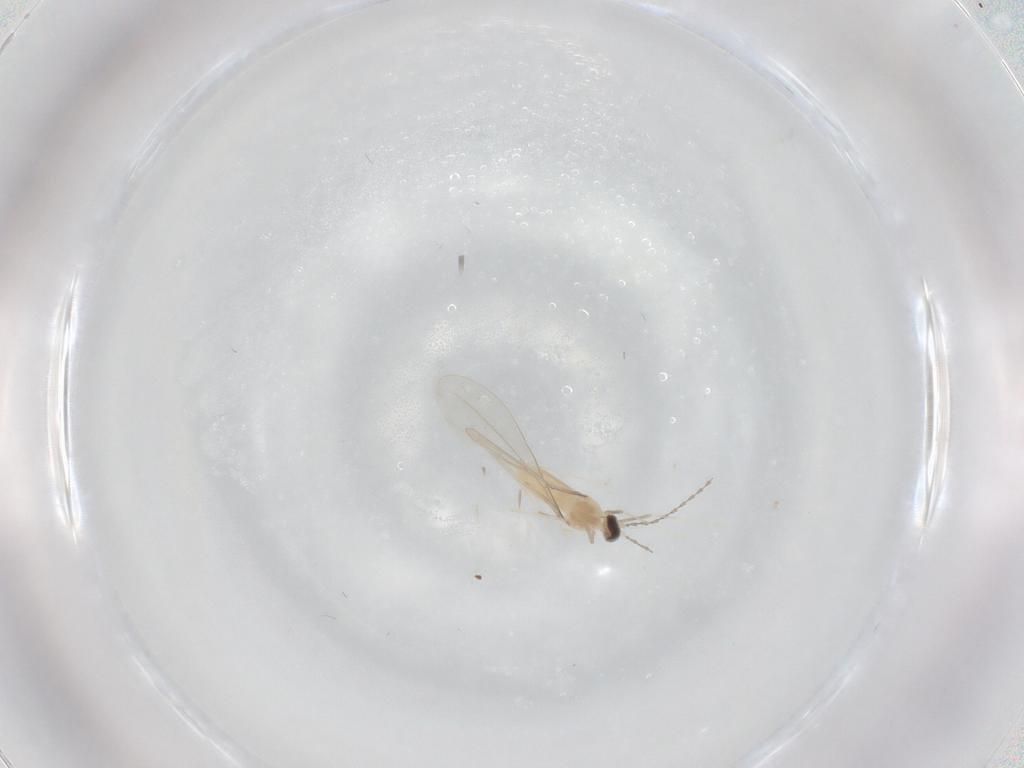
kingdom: Animalia
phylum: Arthropoda
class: Insecta
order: Diptera
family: Cecidomyiidae
